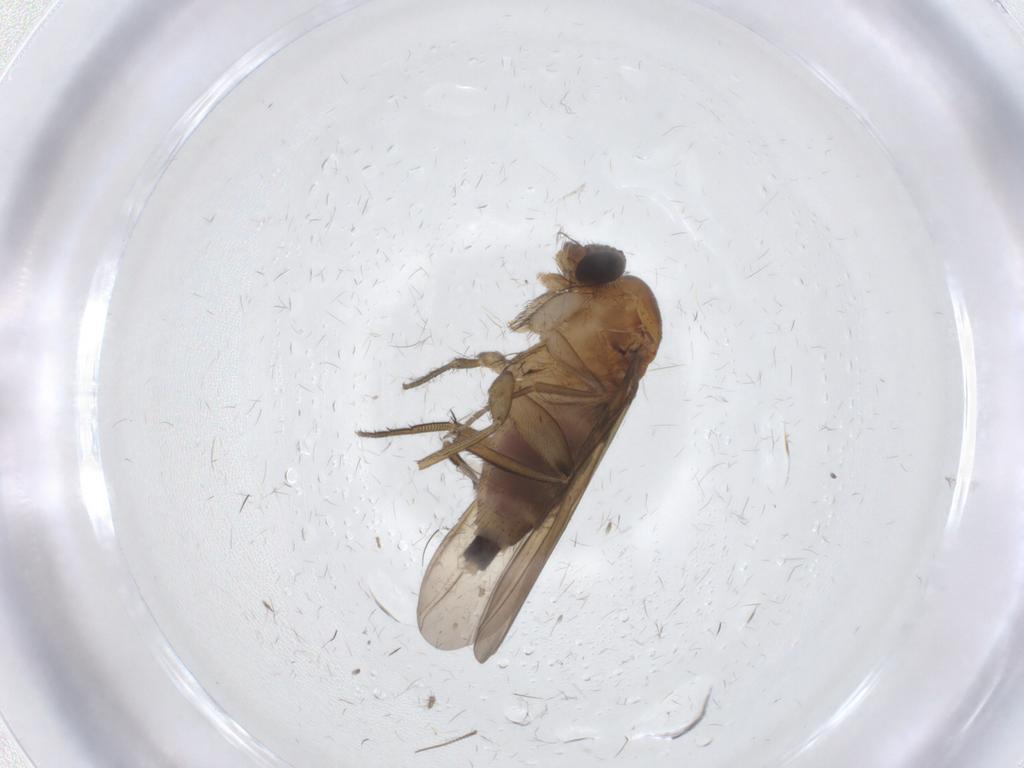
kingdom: Animalia
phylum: Arthropoda
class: Insecta
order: Diptera
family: Phoridae
